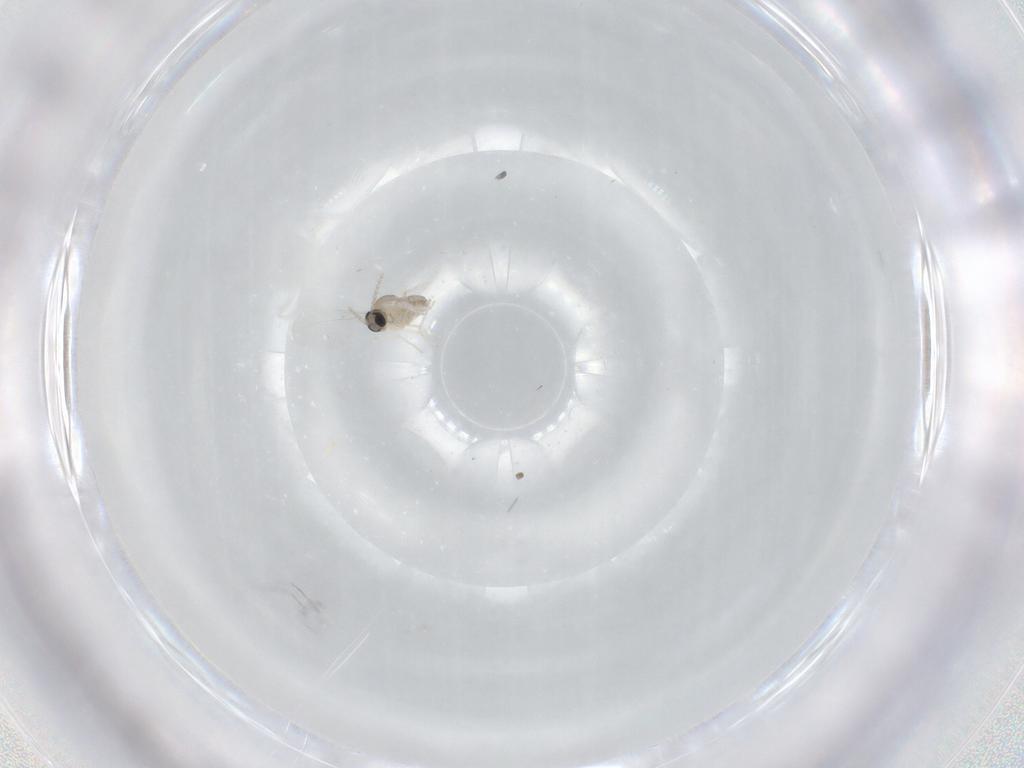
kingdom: Animalia
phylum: Arthropoda
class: Insecta
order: Diptera
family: Cecidomyiidae
